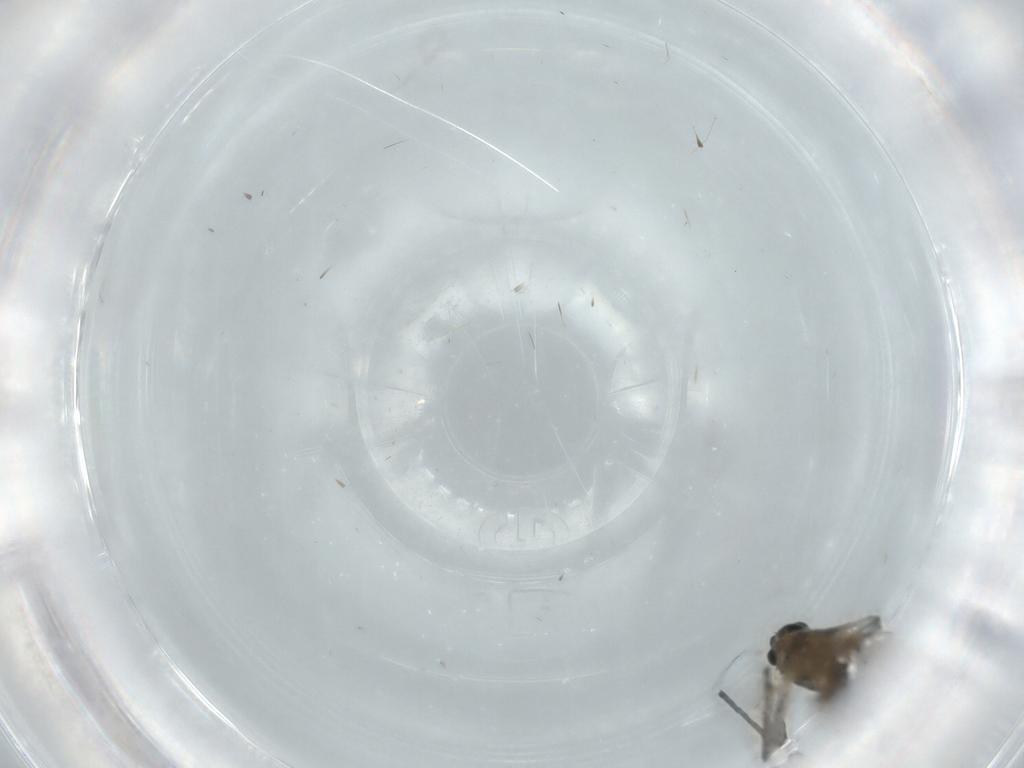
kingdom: Animalia
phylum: Arthropoda
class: Insecta
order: Diptera
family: Chironomidae
